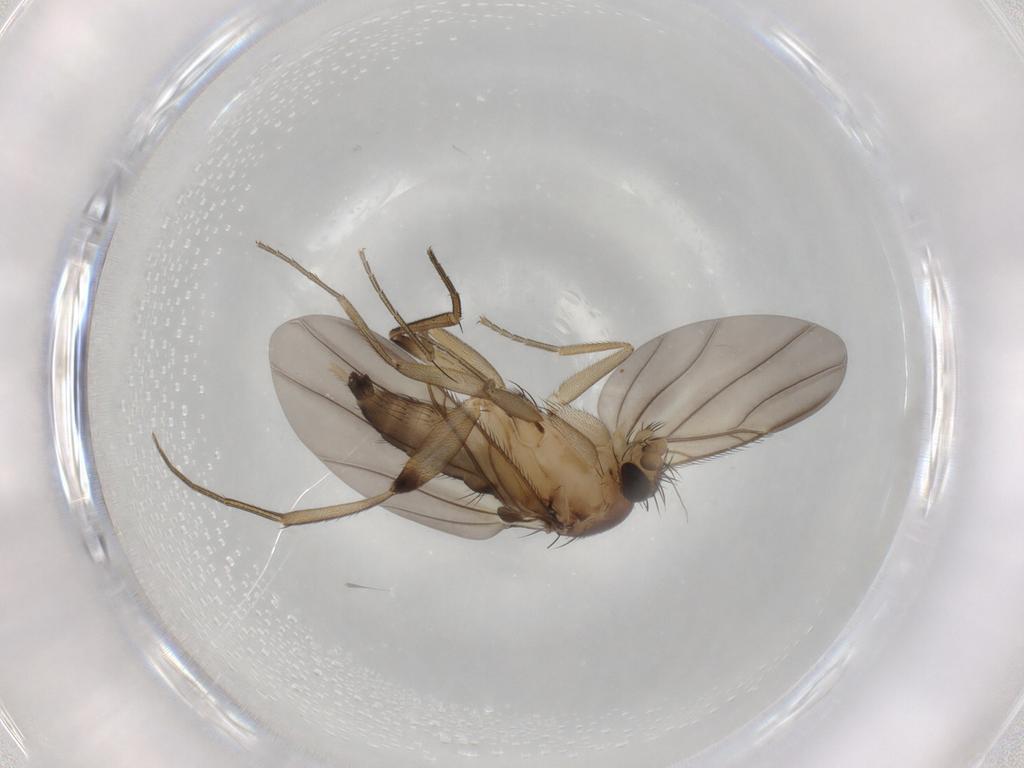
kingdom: Animalia
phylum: Arthropoda
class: Insecta
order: Diptera
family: Phoridae
